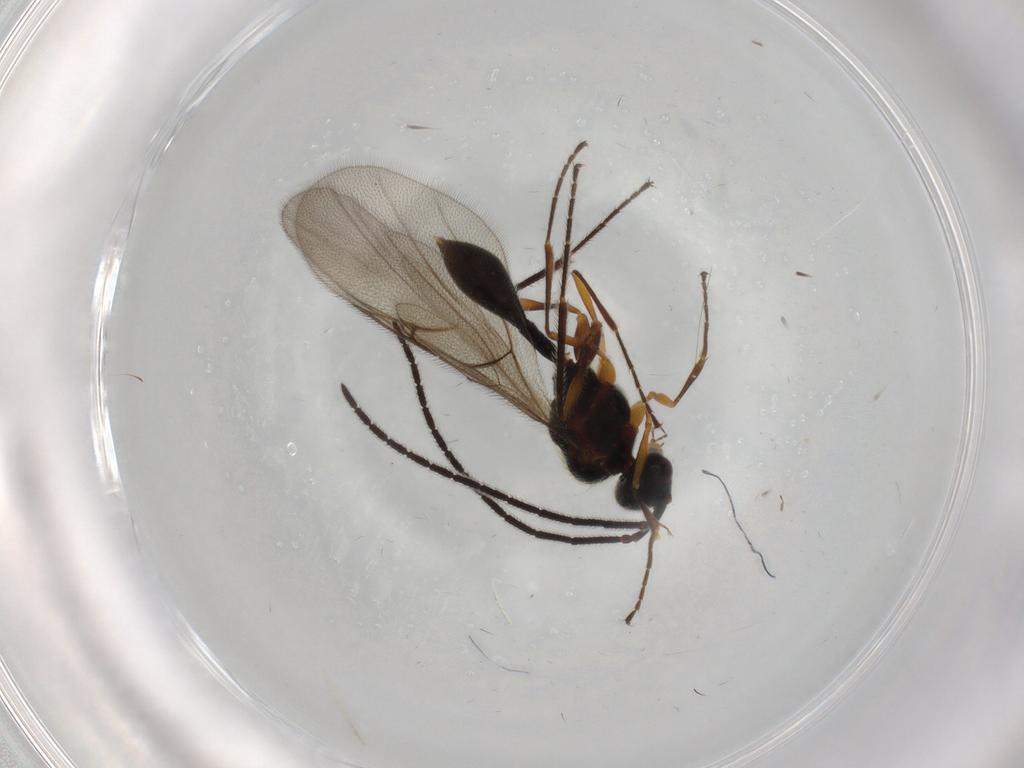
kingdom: Animalia
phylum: Arthropoda
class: Insecta
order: Hymenoptera
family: Diapriidae
